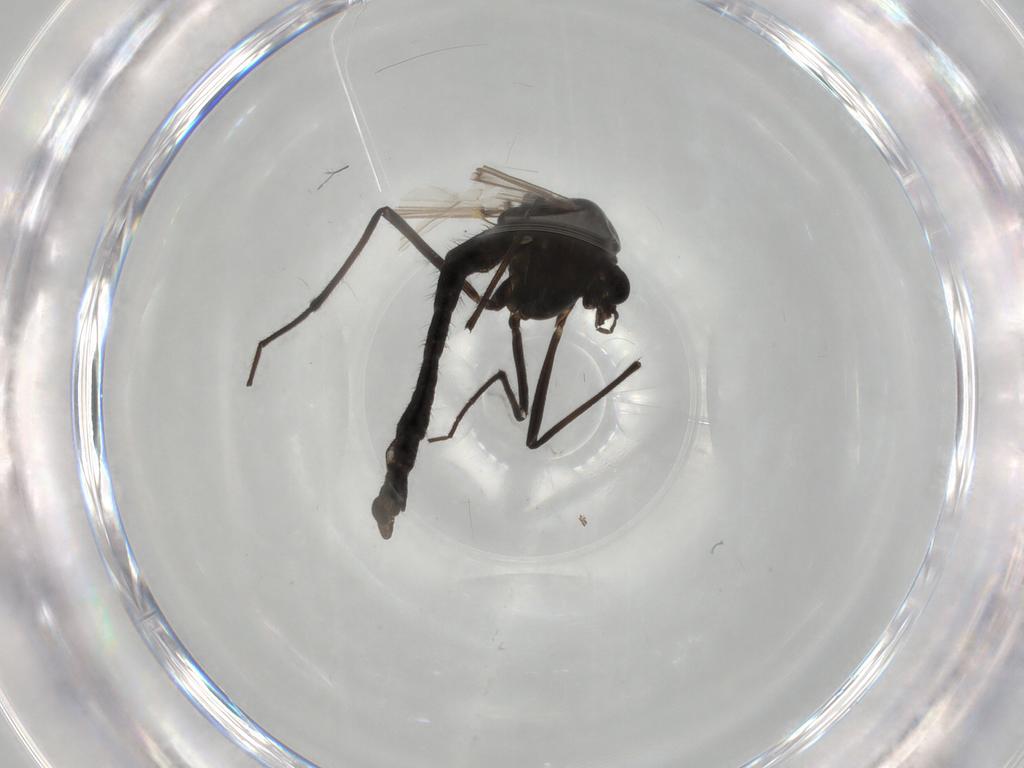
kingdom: Animalia
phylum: Arthropoda
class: Insecta
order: Diptera
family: Chironomidae
